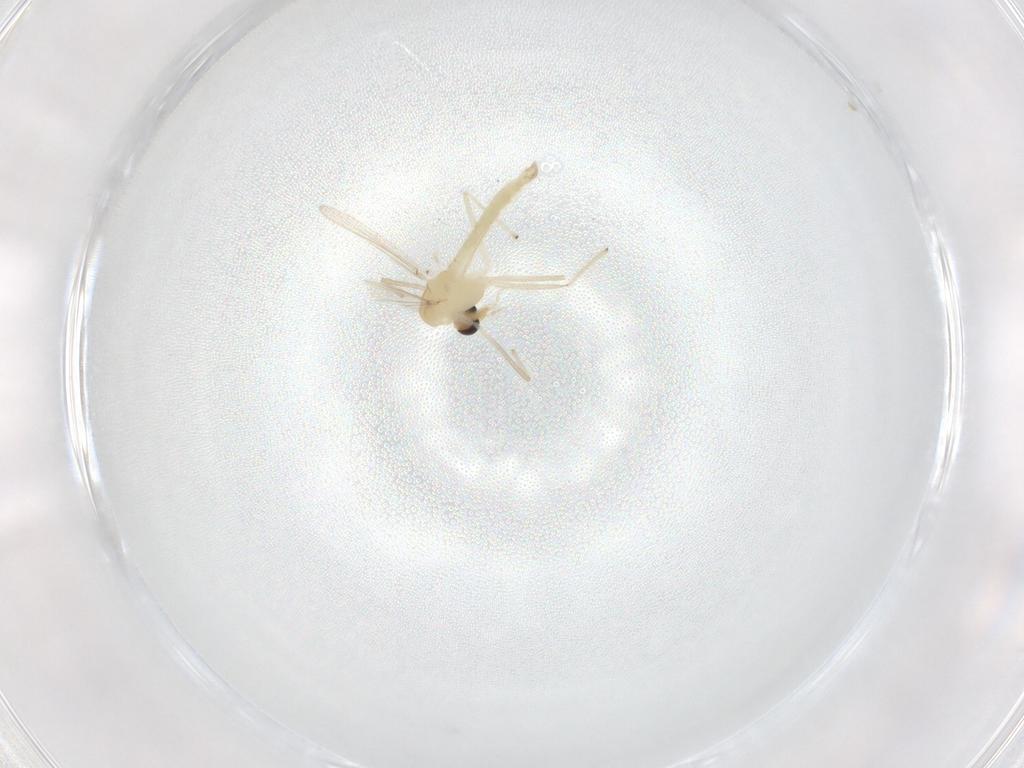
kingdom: Animalia
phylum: Arthropoda
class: Insecta
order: Diptera
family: Chironomidae
